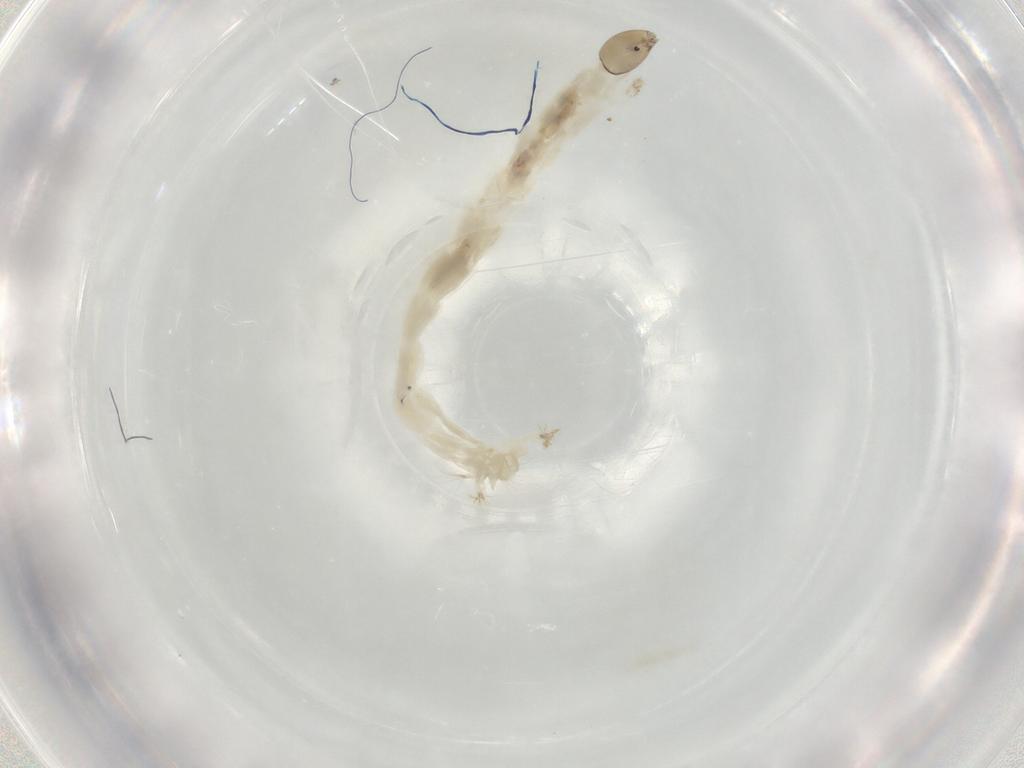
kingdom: Animalia
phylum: Arthropoda
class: Insecta
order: Diptera
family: Chironomidae
